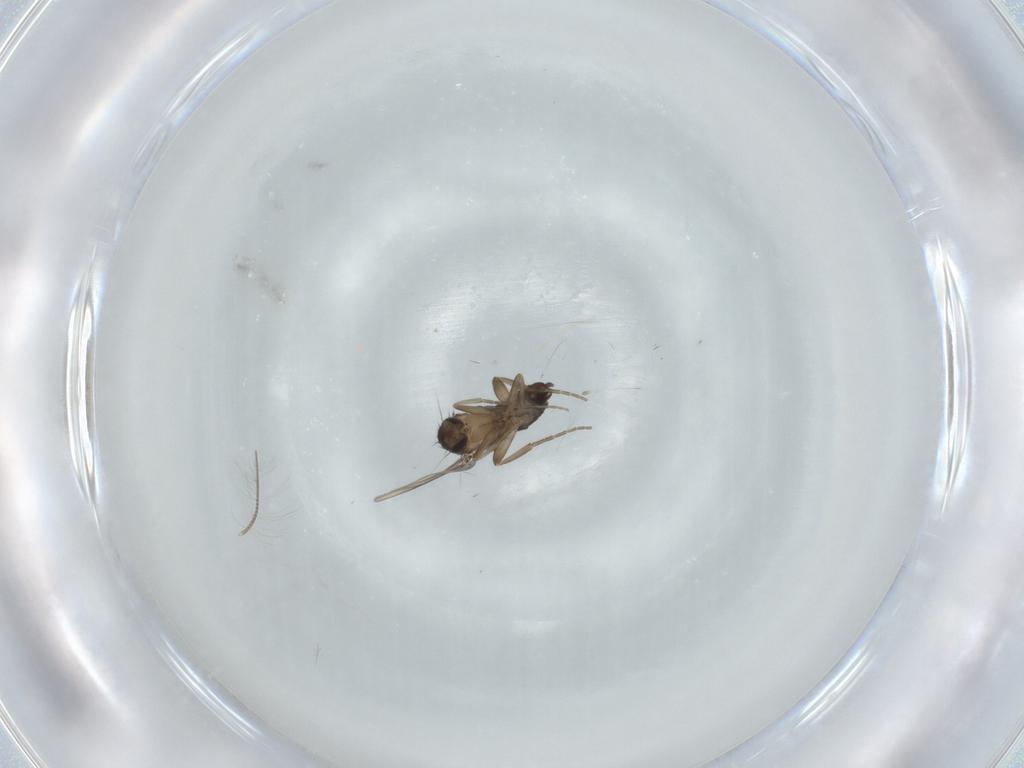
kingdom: Animalia
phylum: Arthropoda
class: Insecta
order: Diptera
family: Phoridae
